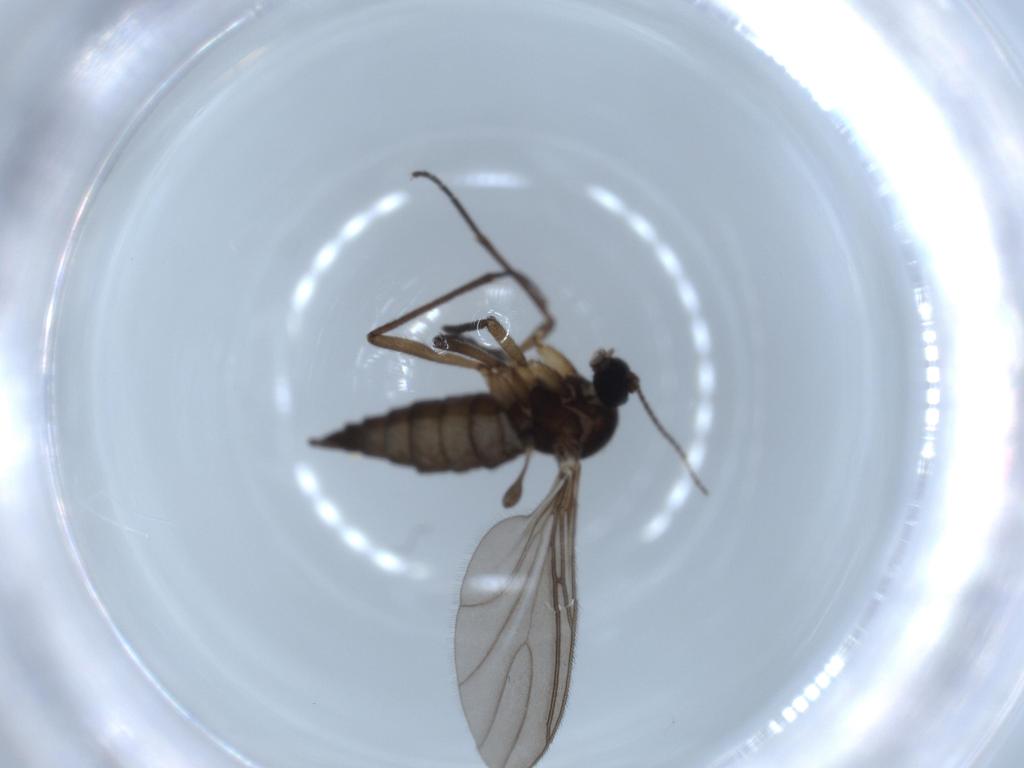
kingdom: Animalia
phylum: Arthropoda
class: Insecta
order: Diptera
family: Sciaridae
